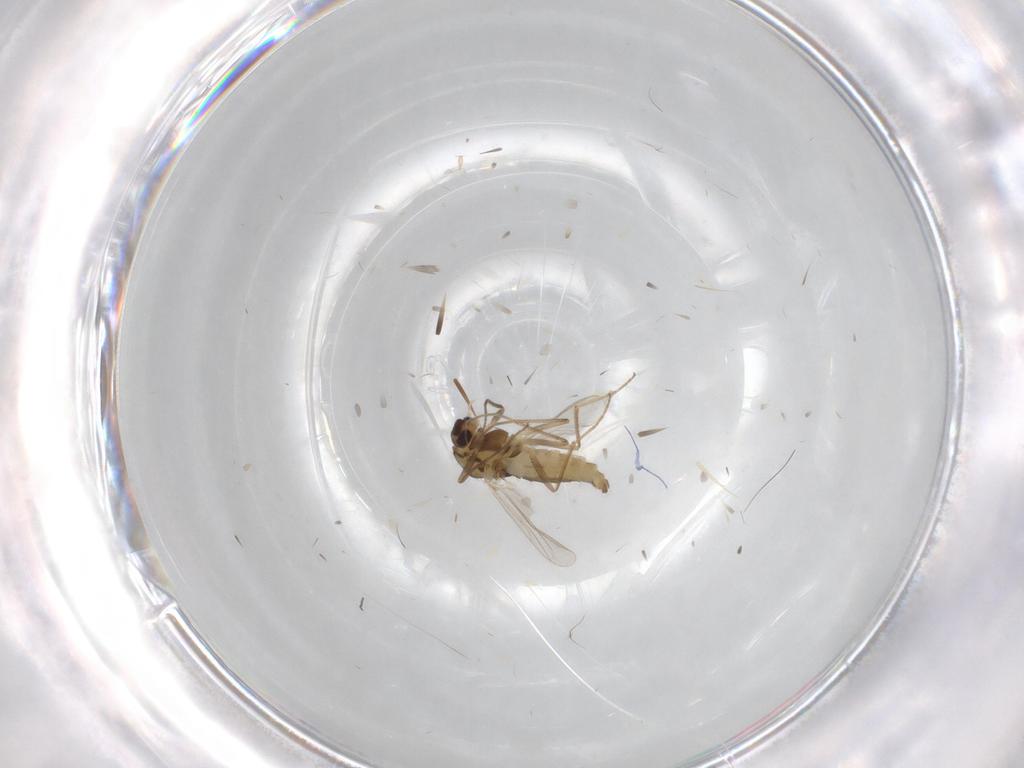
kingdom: Animalia
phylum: Arthropoda
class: Insecta
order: Diptera
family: Chironomidae
